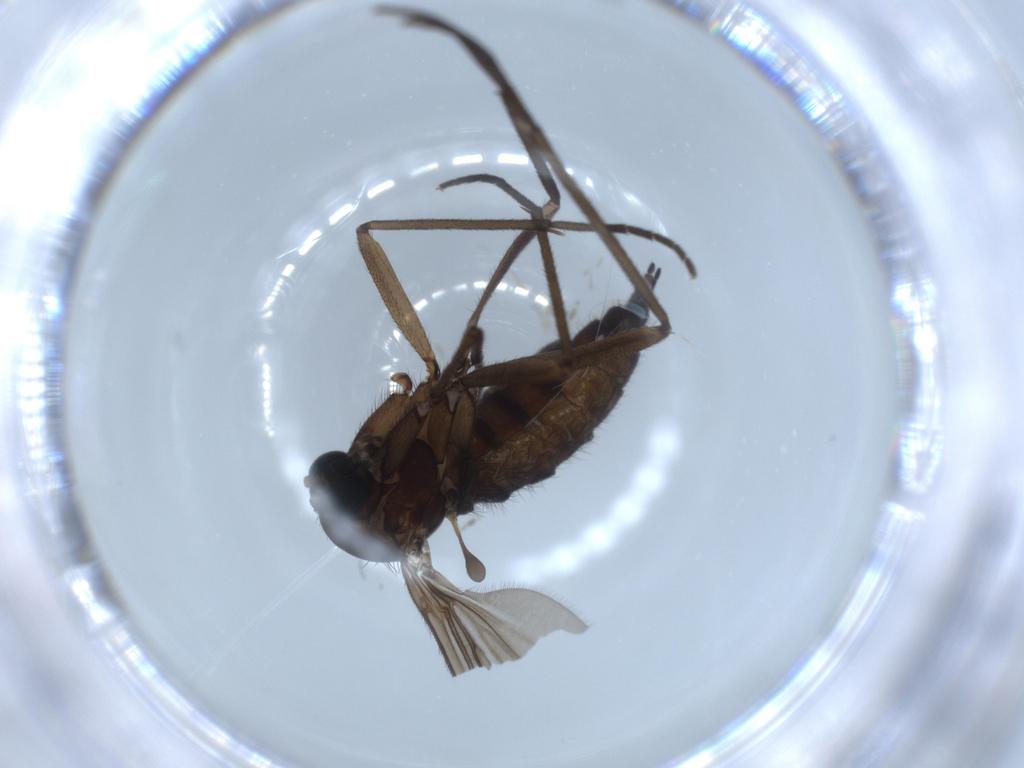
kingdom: Animalia
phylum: Arthropoda
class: Insecta
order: Diptera
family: Sciaridae
